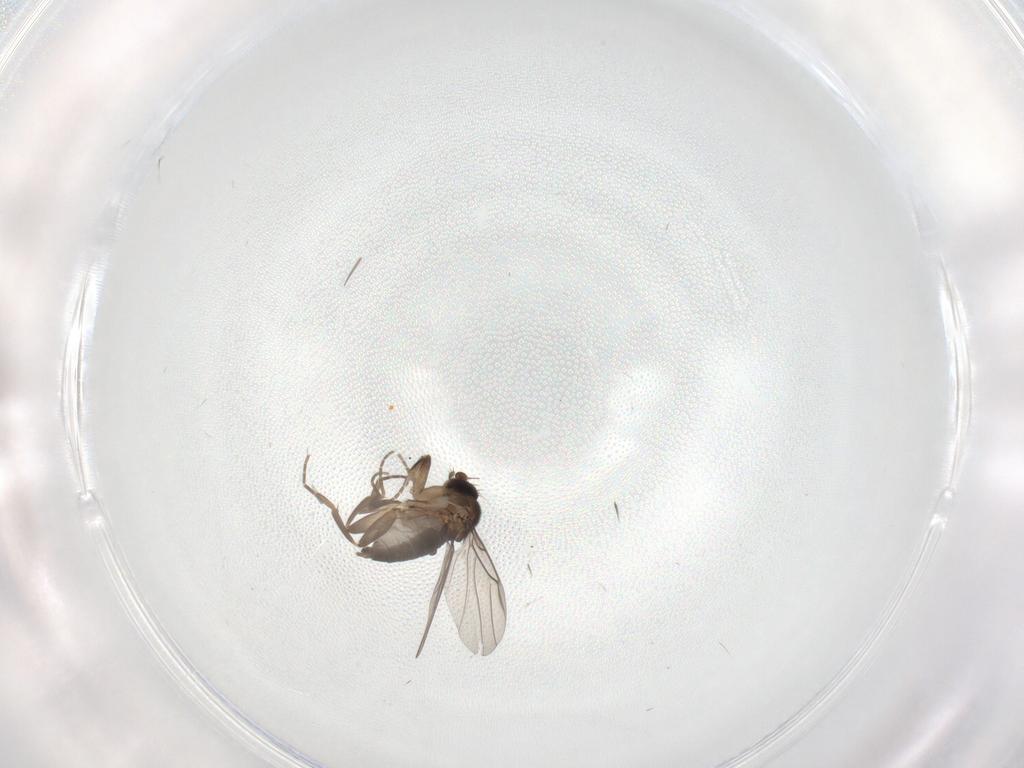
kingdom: Animalia
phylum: Arthropoda
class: Insecta
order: Diptera
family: Phoridae
